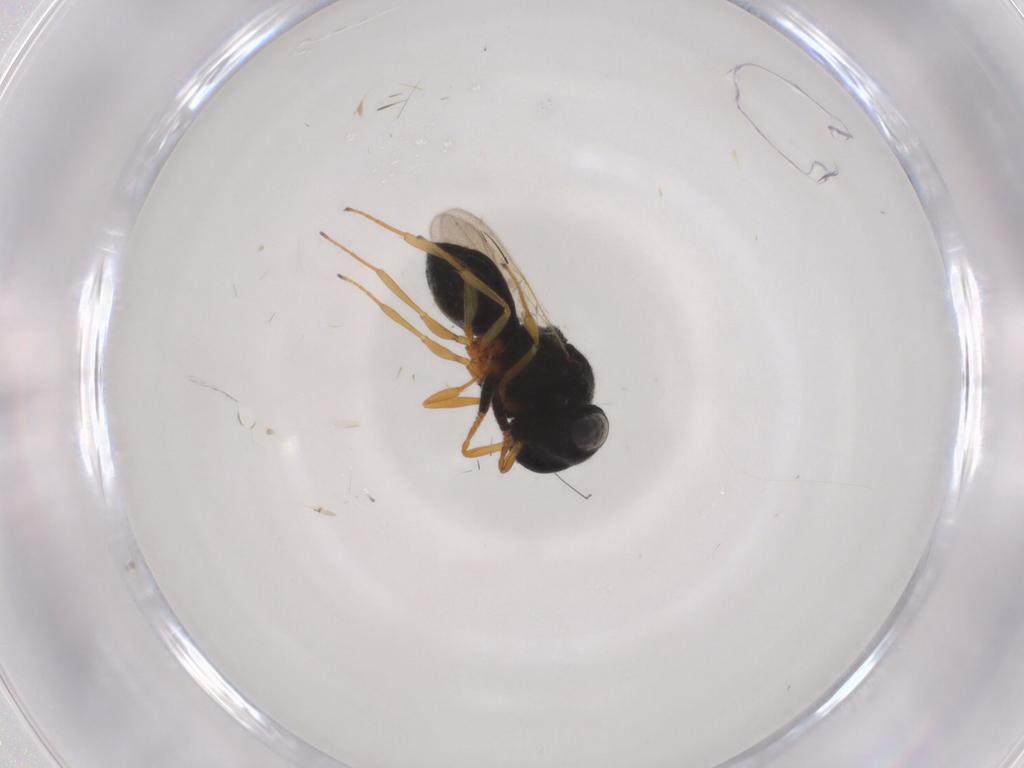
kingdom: Animalia
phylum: Arthropoda
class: Insecta
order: Hymenoptera
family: Scelionidae
